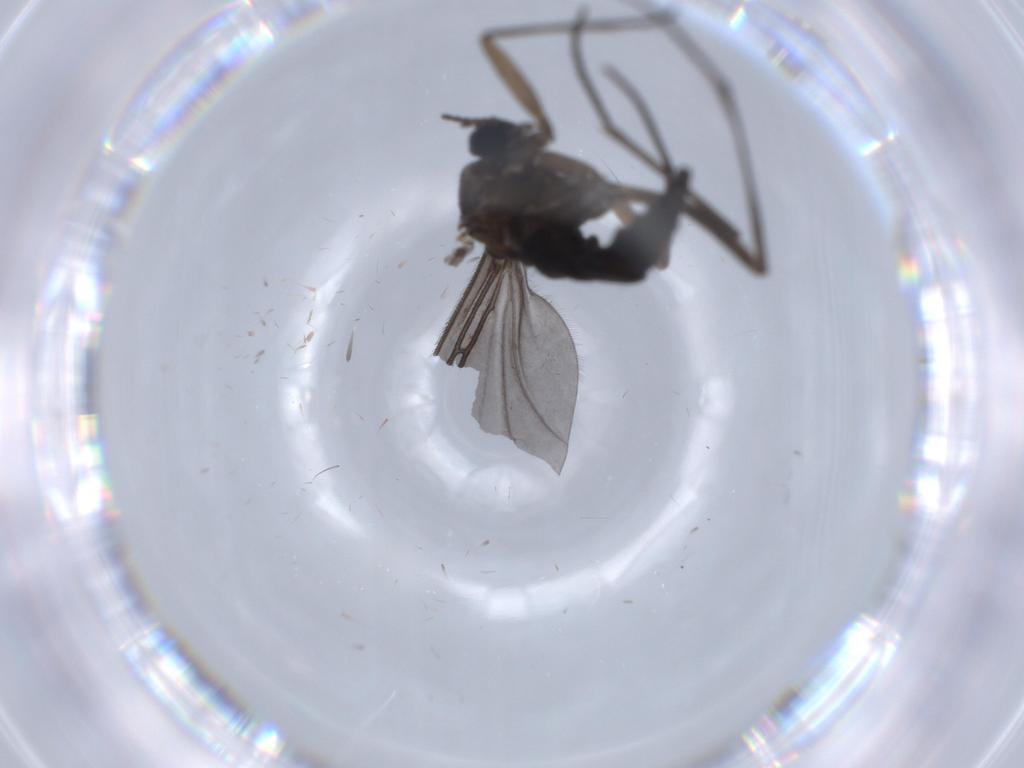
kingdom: Animalia
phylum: Arthropoda
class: Insecta
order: Diptera
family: Sciaridae
